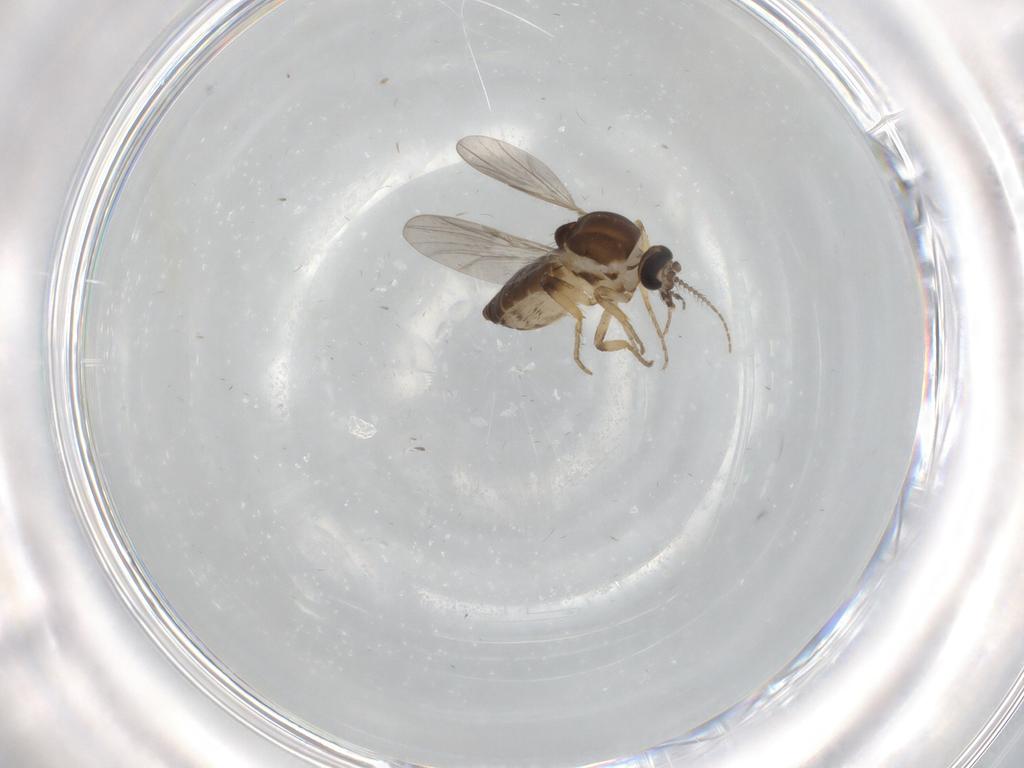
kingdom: Animalia
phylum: Arthropoda
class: Insecta
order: Diptera
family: Ceratopogonidae
